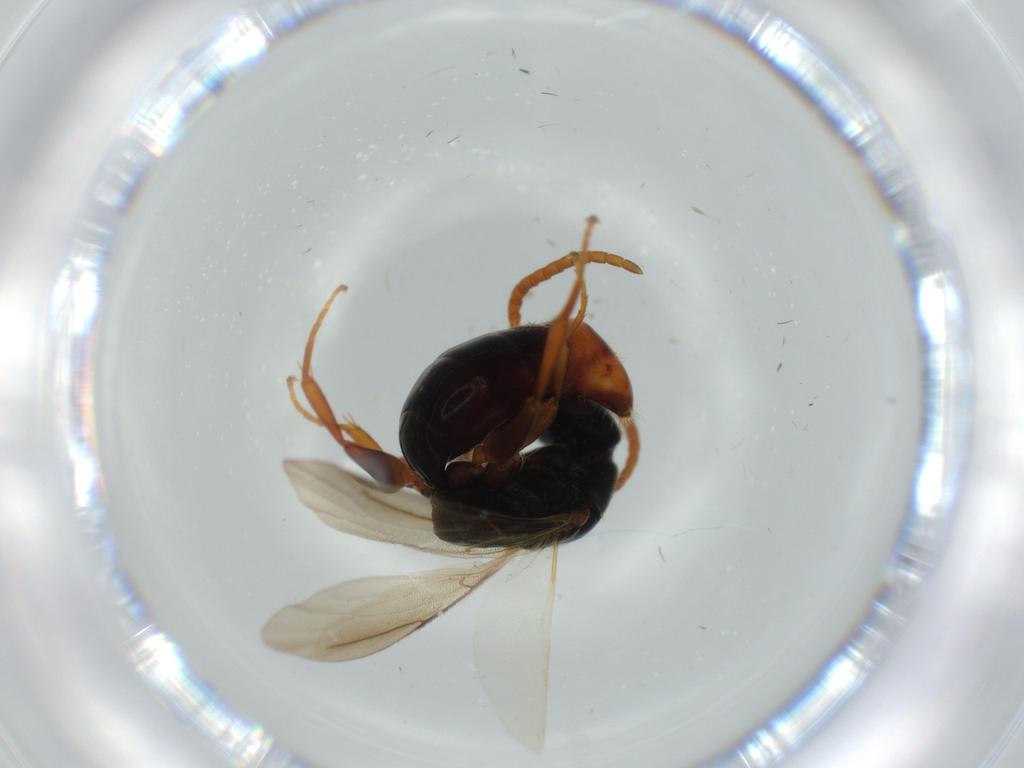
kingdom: Animalia
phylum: Arthropoda
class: Insecta
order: Hymenoptera
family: Bethylidae
